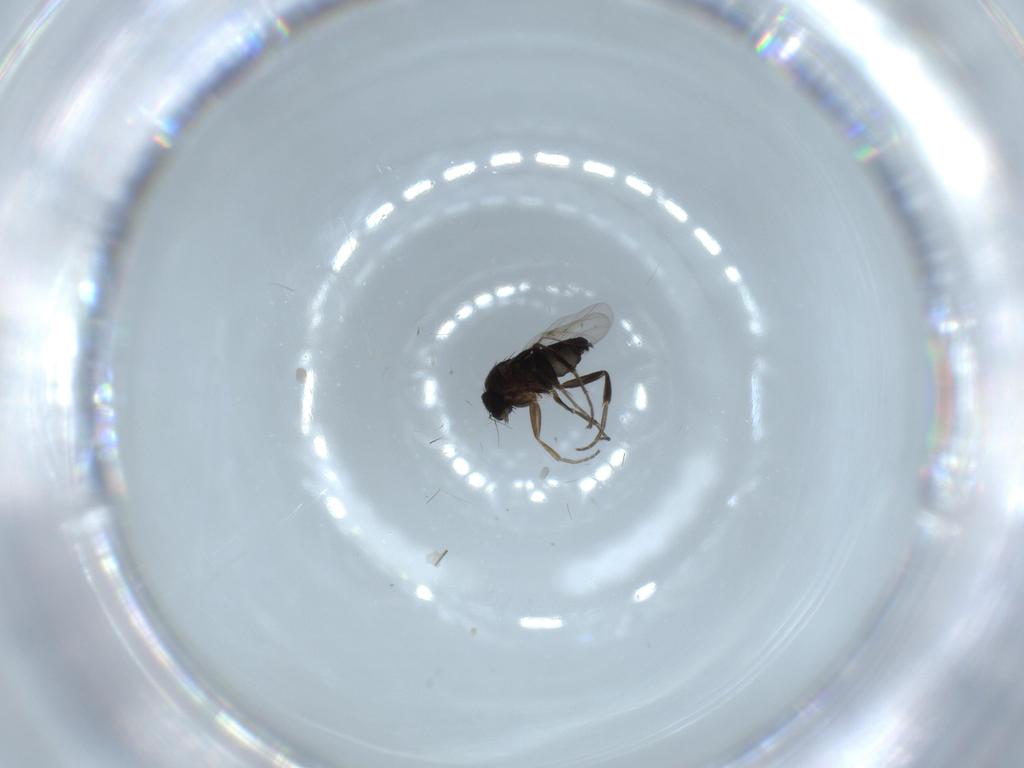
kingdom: Animalia
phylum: Arthropoda
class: Insecta
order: Diptera
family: Phoridae
